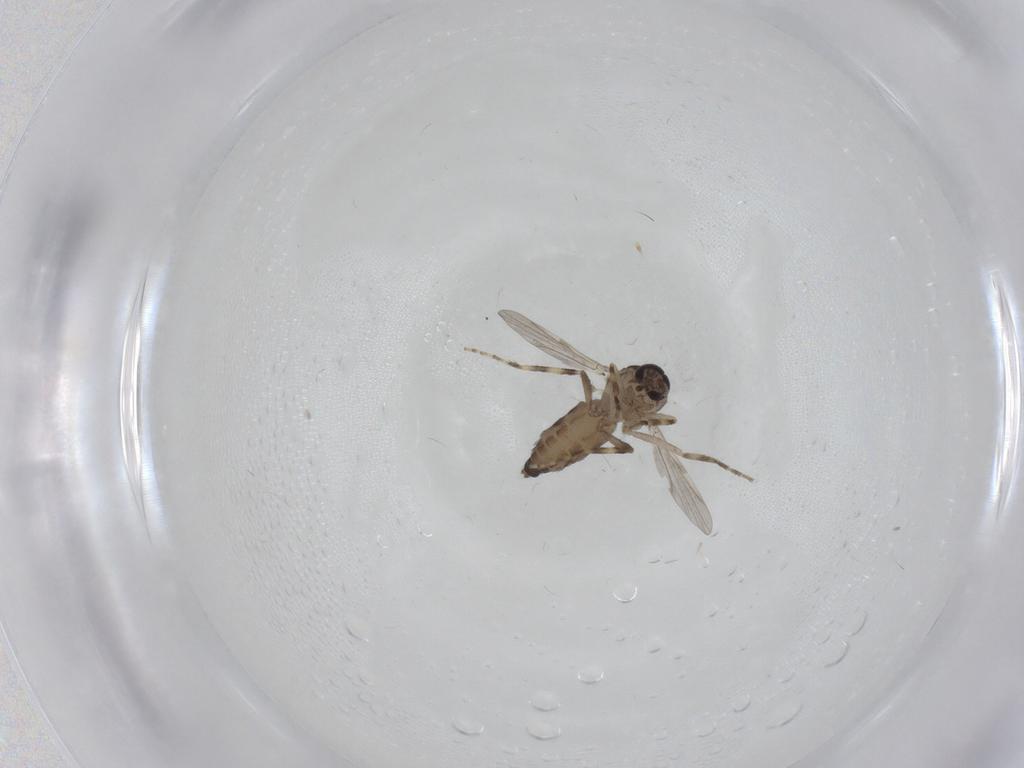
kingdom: Animalia
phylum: Arthropoda
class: Insecta
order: Diptera
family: Ceratopogonidae
